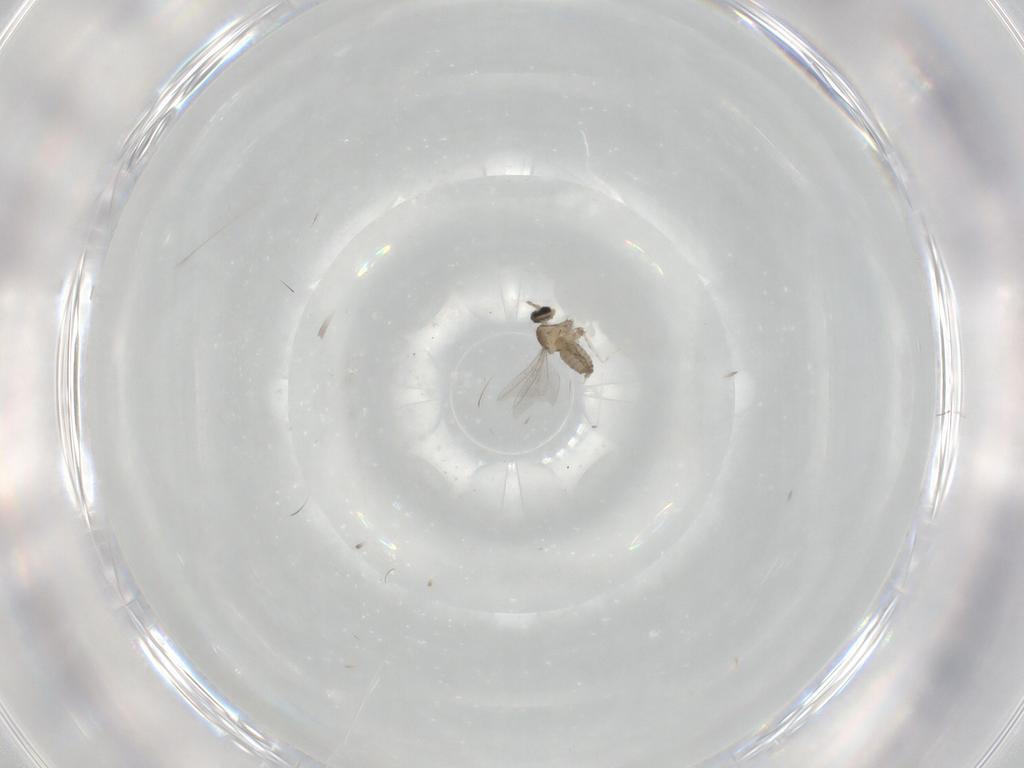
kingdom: Animalia
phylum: Arthropoda
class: Insecta
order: Diptera
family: Cecidomyiidae
